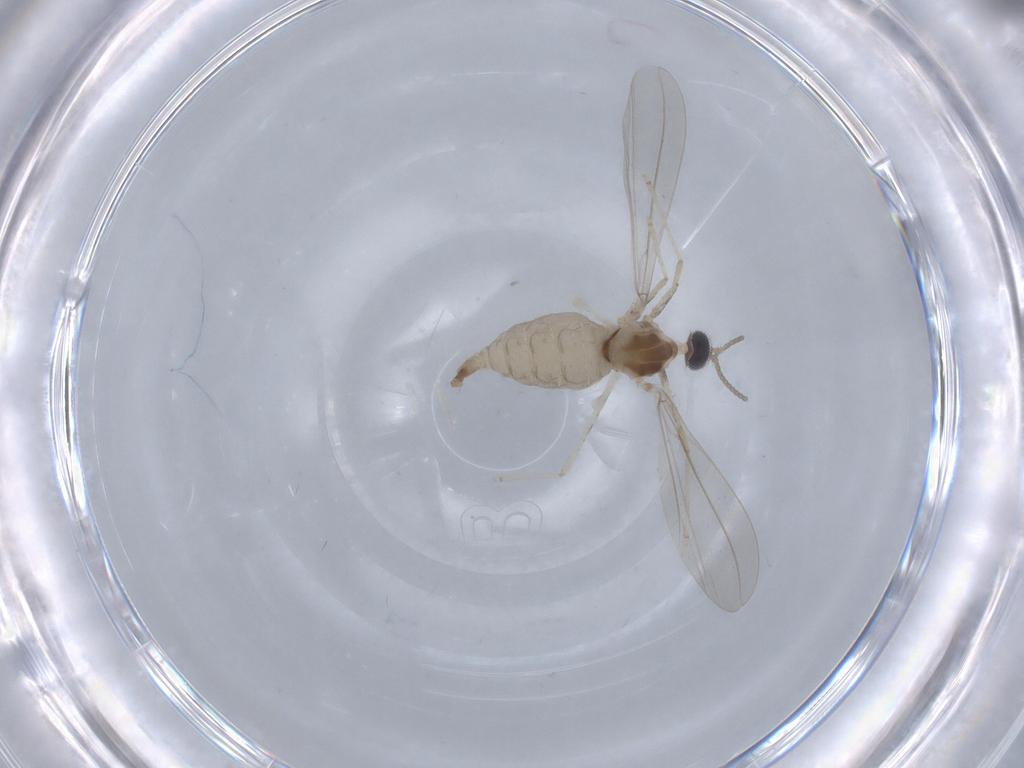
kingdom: Animalia
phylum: Arthropoda
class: Insecta
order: Diptera
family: Cecidomyiidae
